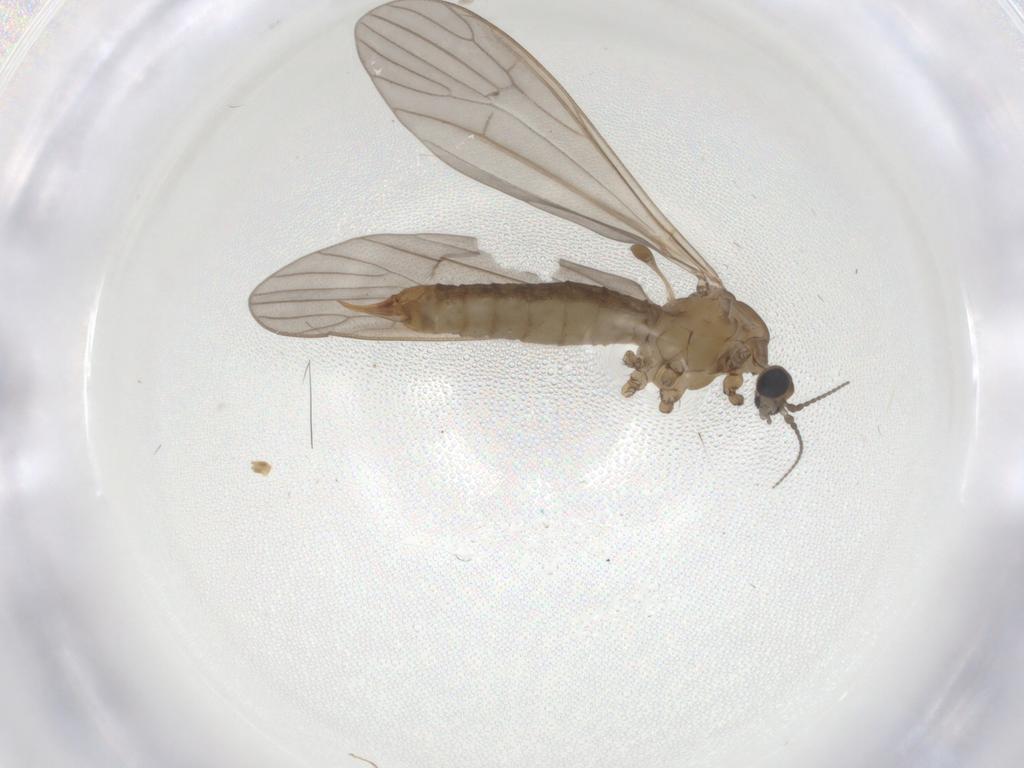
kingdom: Animalia
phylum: Arthropoda
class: Insecta
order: Diptera
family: Limoniidae
